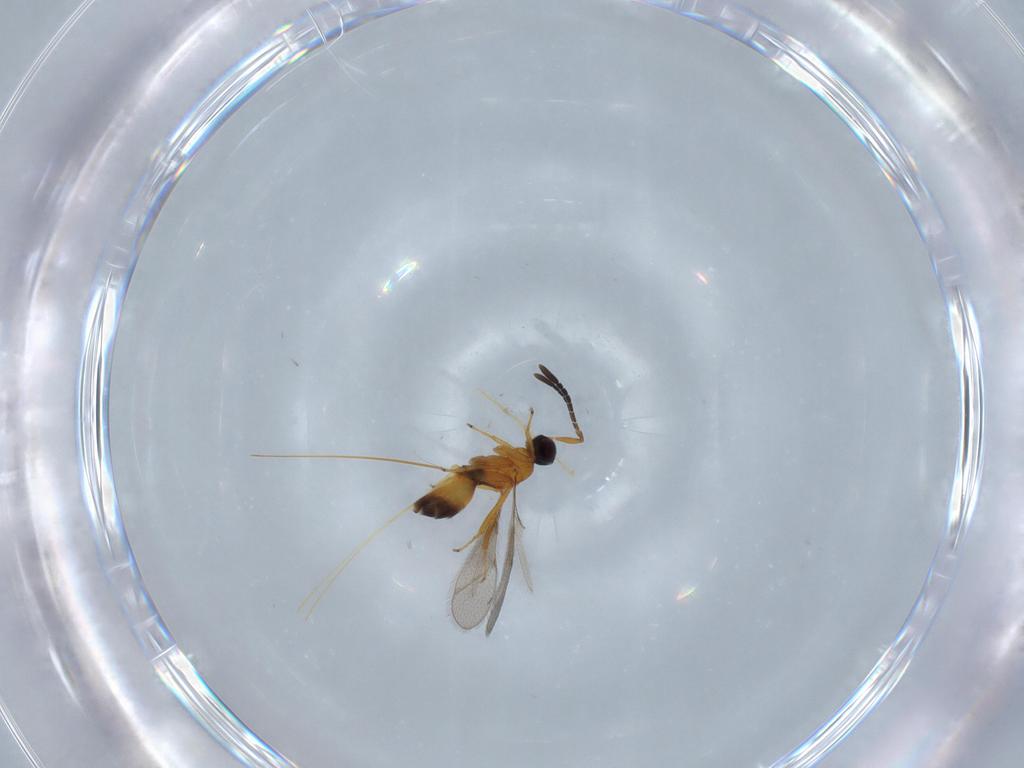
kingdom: Animalia
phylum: Arthropoda
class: Insecta
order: Hymenoptera
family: Mymaridae
